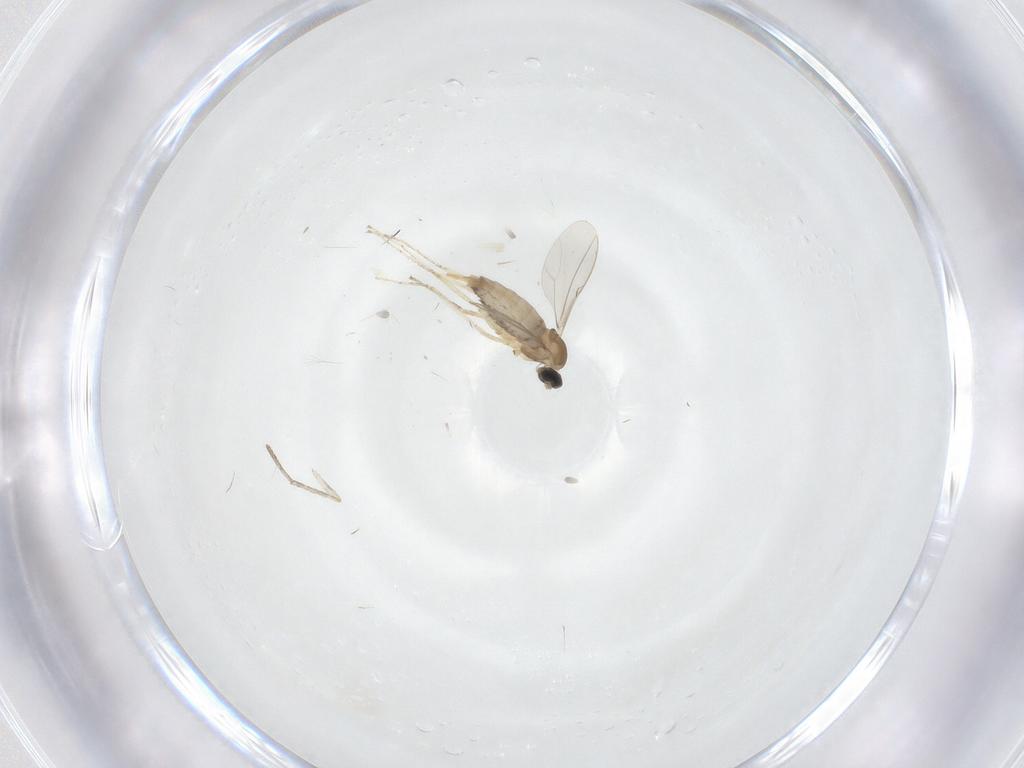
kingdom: Animalia
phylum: Arthropoda
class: Insecta
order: Diptera
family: Cecidomyiidae
